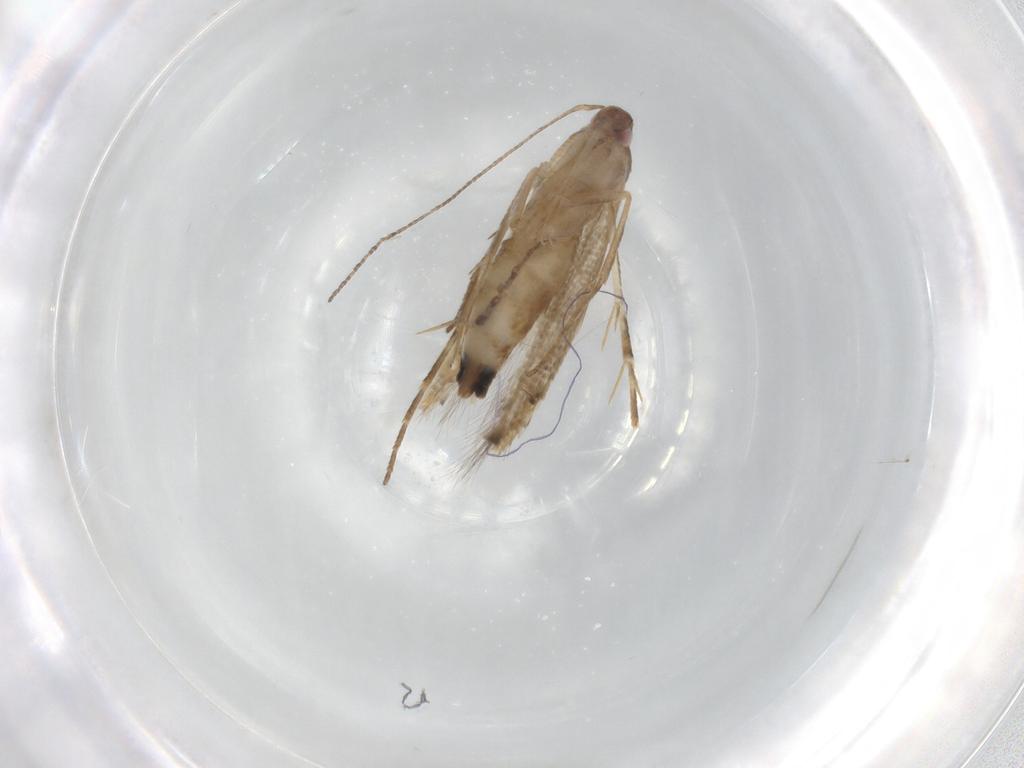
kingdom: Animalia
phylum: Arthropoda
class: Insecta
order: Lepidoptera
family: Cosmopterigidae
